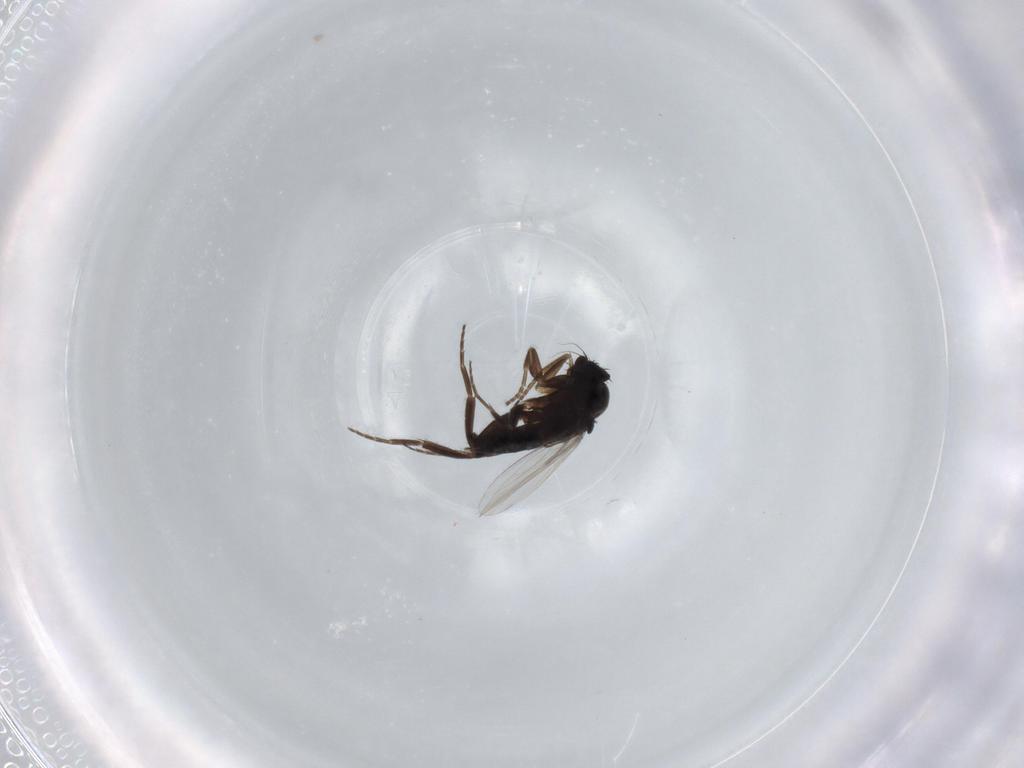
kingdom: Animalia
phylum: Arthropoda
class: Insecta
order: Diptera
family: Phoridae
